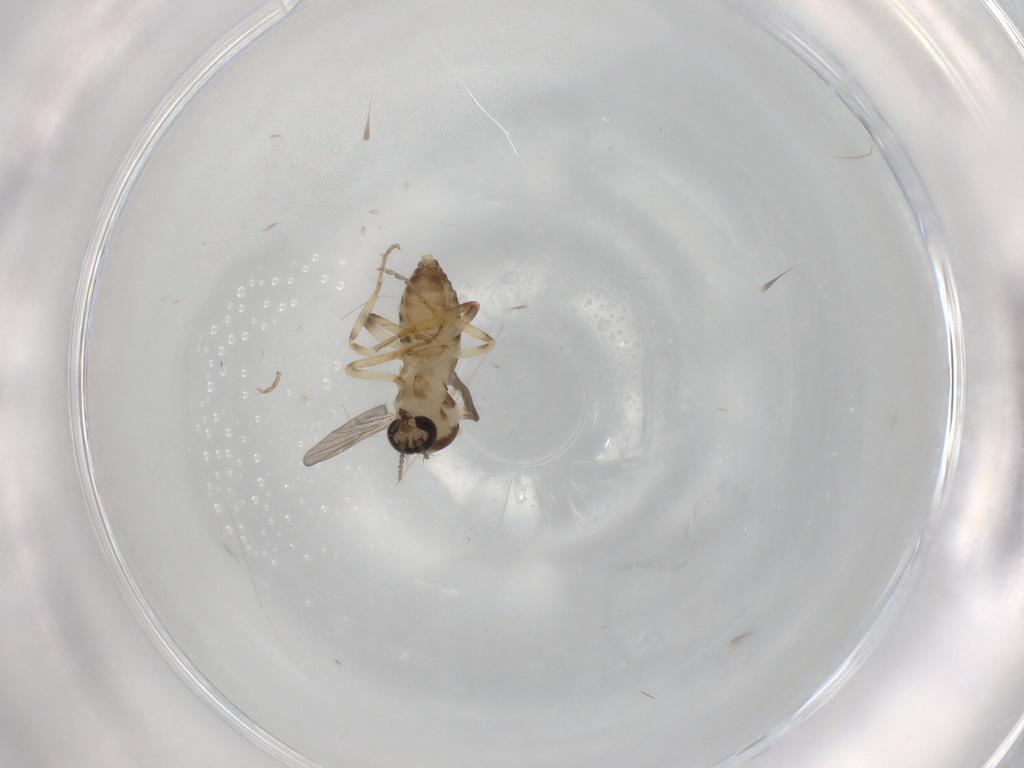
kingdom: Animalia
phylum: Arthropoda
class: Insecta
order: Diptera
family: Ceratopogonidae
